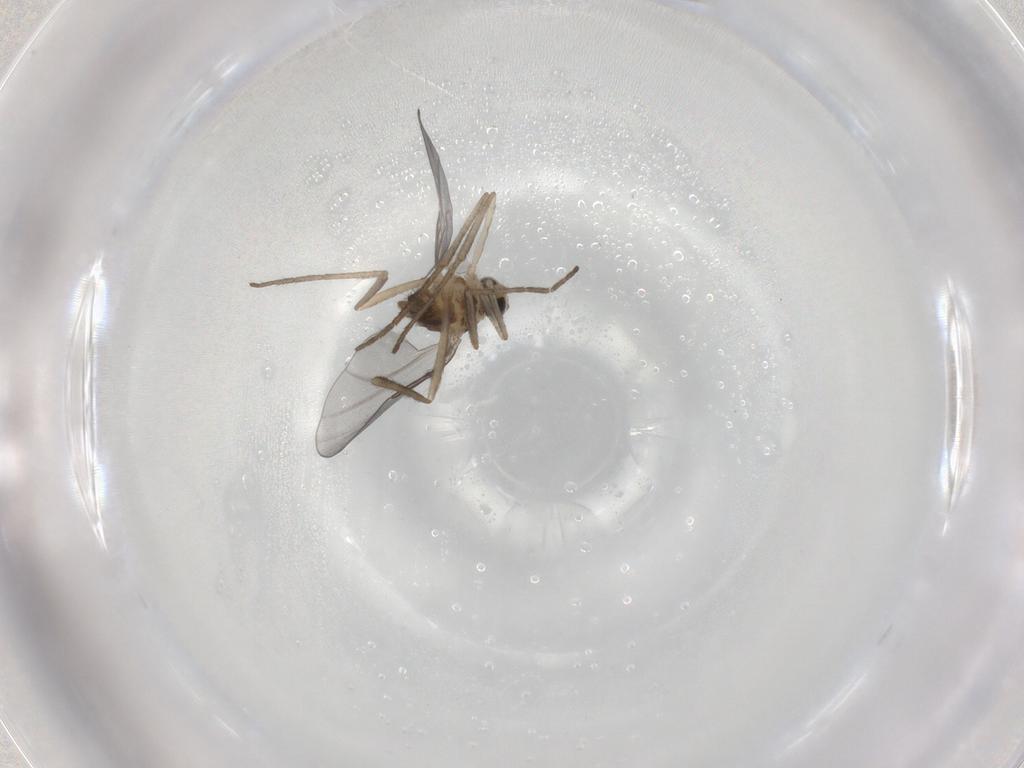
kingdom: Animalia
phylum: Arthropoda
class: Insecta
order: Diptera
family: Cecidomyiidae
